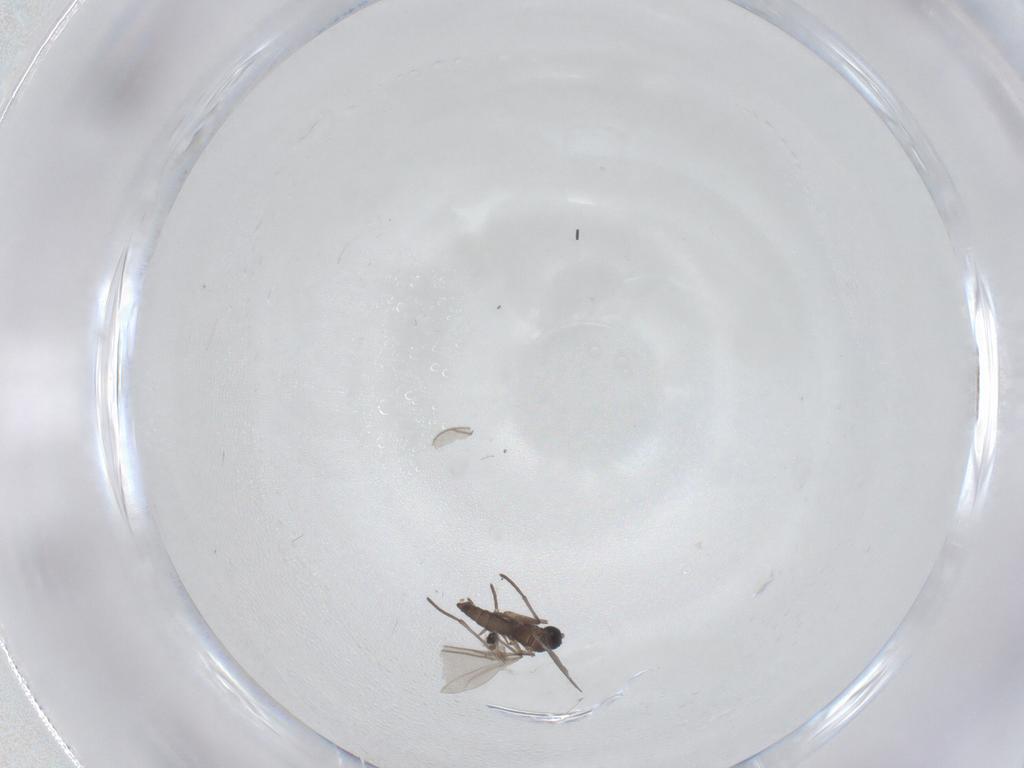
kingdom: Animalia
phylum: Arthropoda
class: Insecta
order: Diptera
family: Sciaridae
